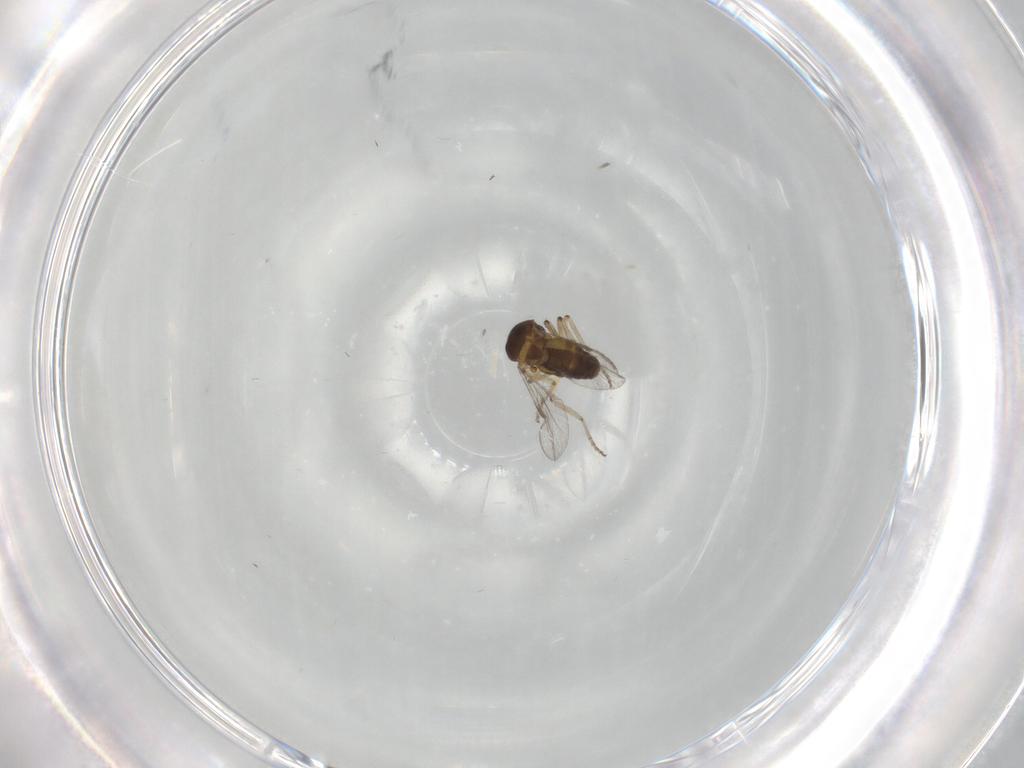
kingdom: Animalia
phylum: Arthropoda
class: Insecta
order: Diptera
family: Ceratopogonidae
